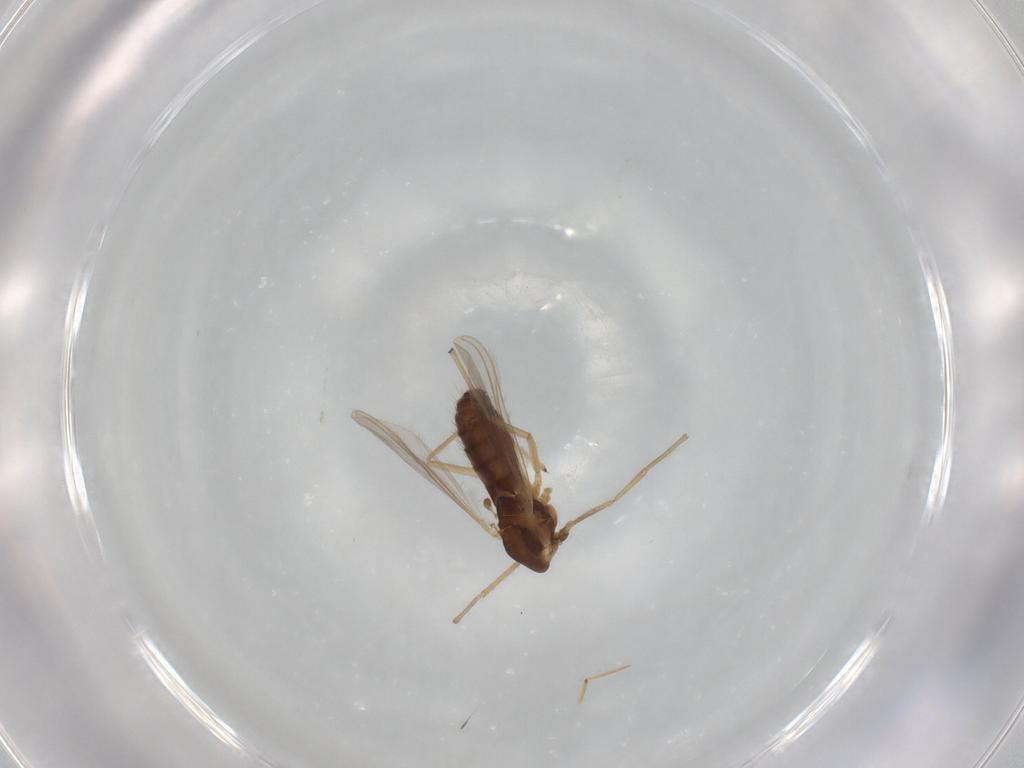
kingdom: Animalia
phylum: Arthropoda
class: Insecta
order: Diptera
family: Chironomidae
